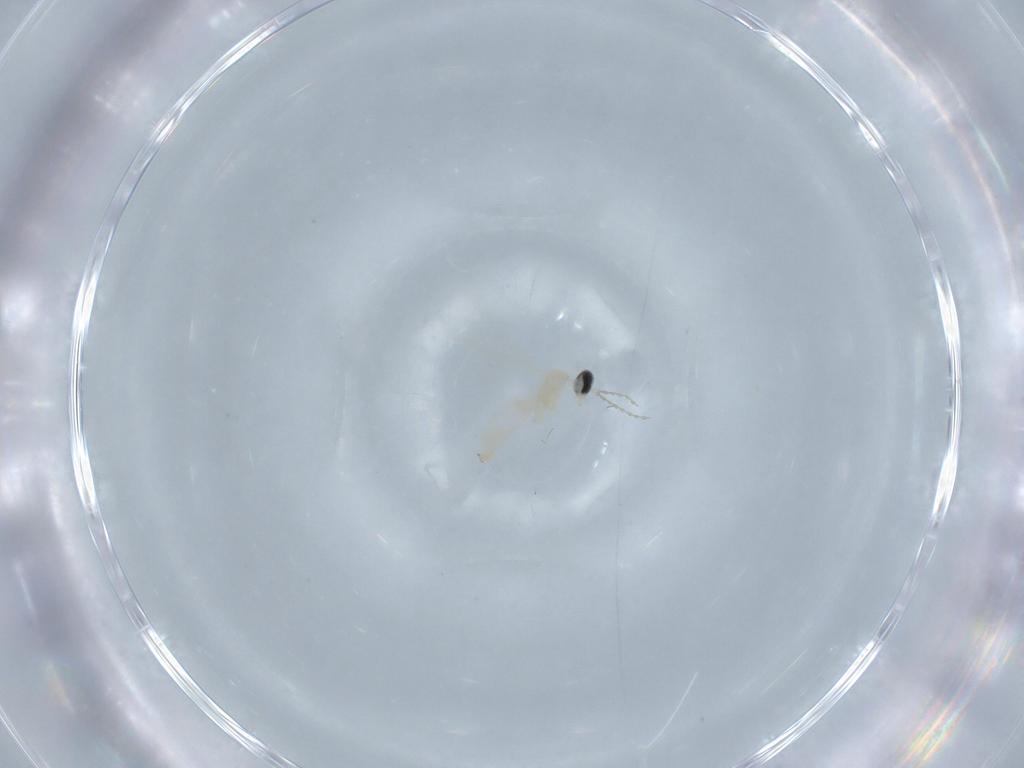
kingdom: Animalia
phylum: Arthropoda
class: Insecta
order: Diptera
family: Cecidomyiidae
